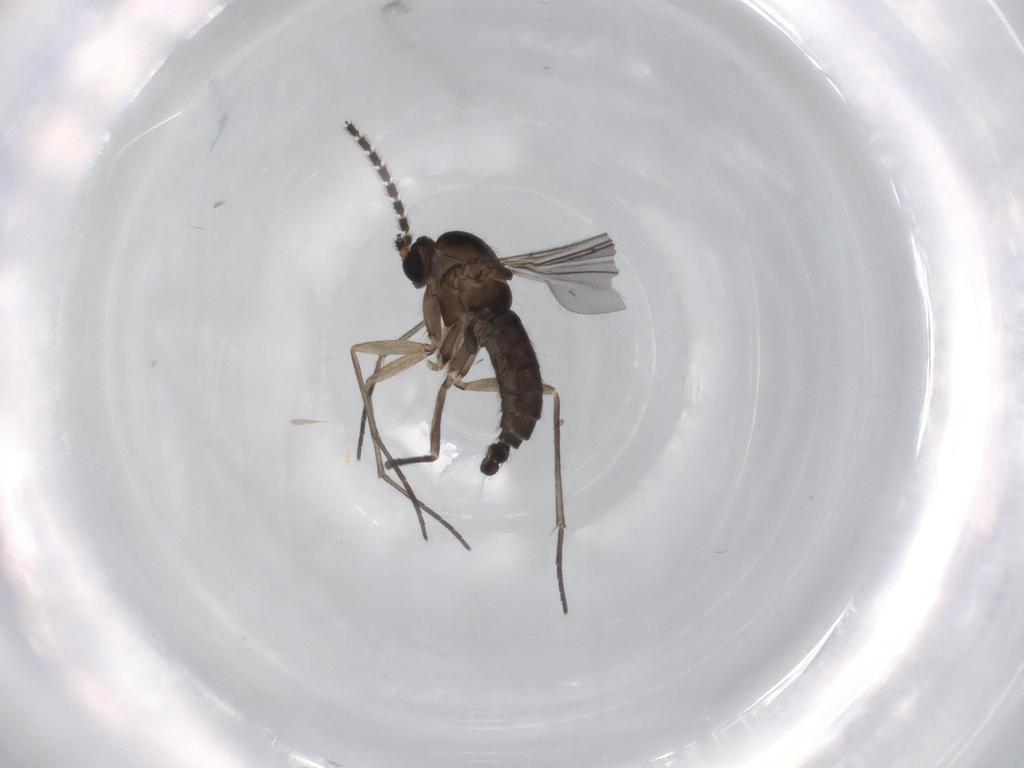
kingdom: Animalia
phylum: Arthropoda
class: Insecta
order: Diptera
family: Sciaridae
